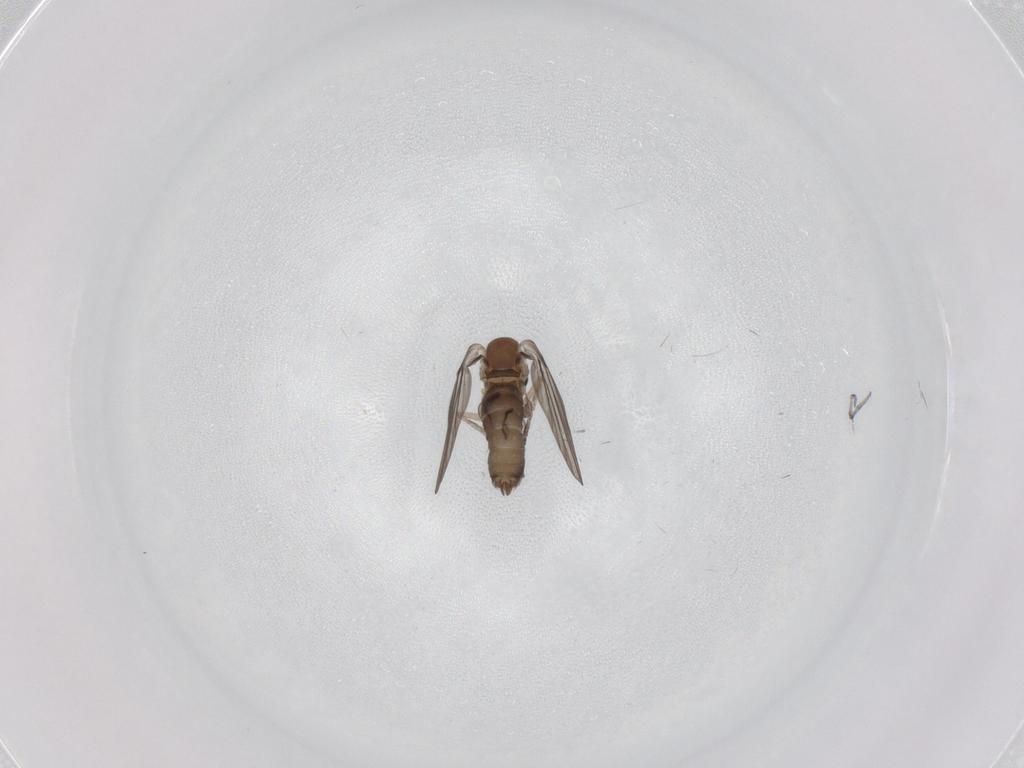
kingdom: Animalia
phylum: Arthropoda
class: Insecta
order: Diptera
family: Psychodidae
